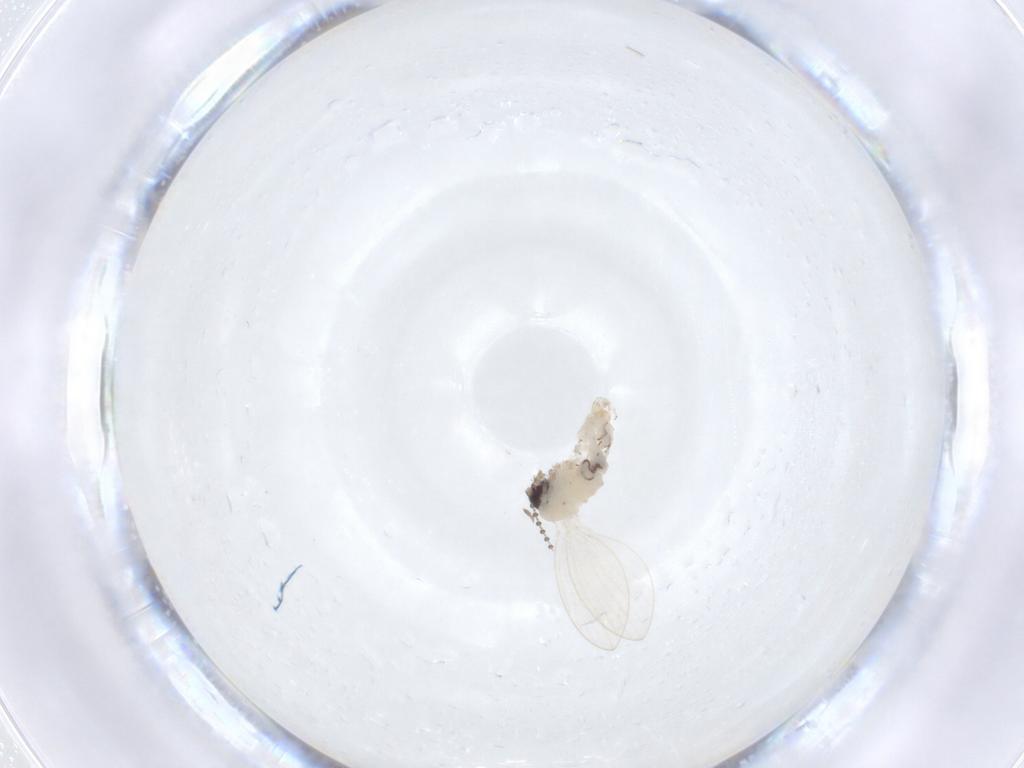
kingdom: Animalia
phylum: Arthropoda
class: Insecta
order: Diptera
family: Psychodidae
